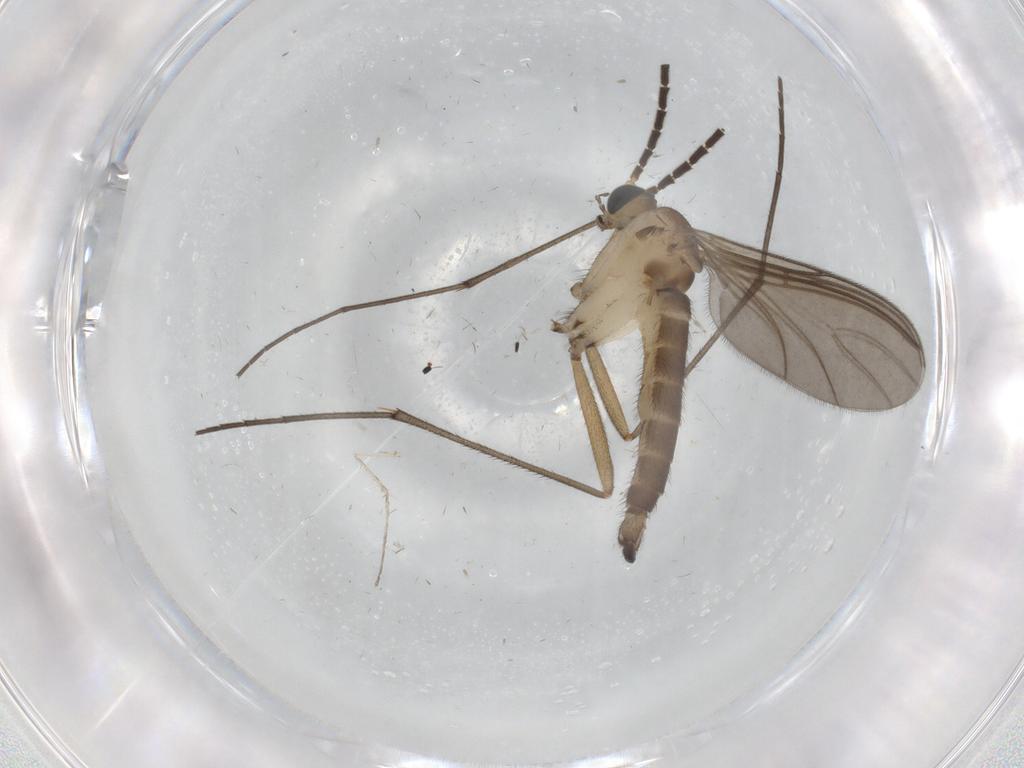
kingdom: Animalia
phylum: Arthropoda
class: Insecta
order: Diptera
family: Sciaridae
